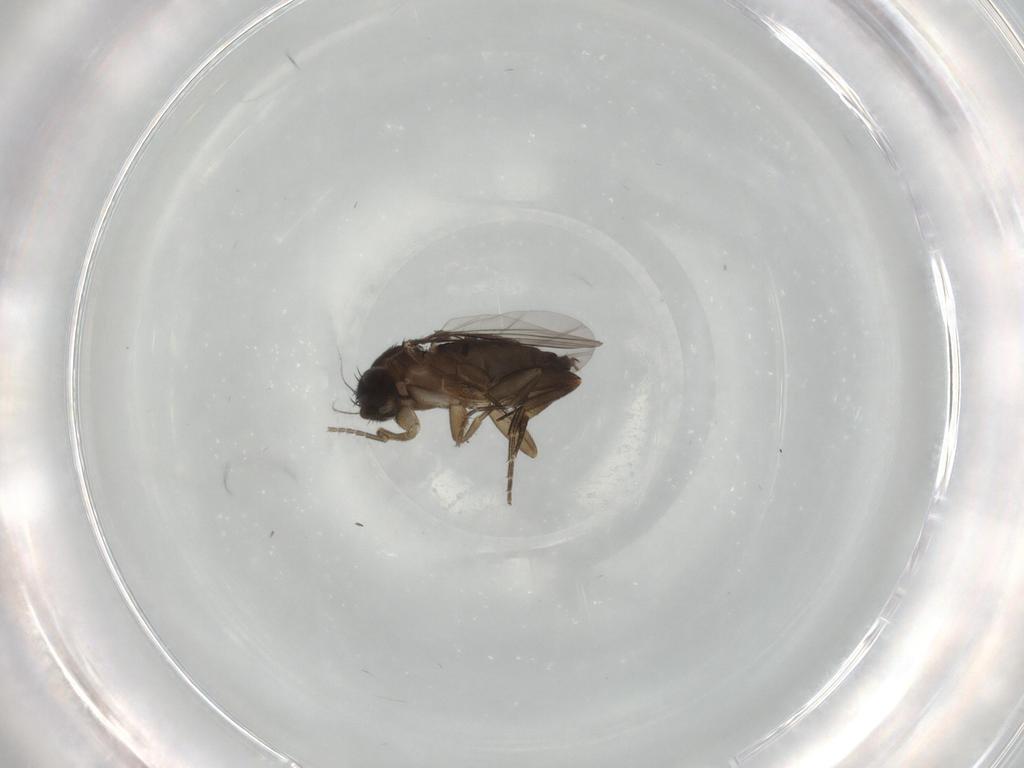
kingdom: Animalia
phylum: Arthropoda
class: Insecta
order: Diptera
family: Phoridae
